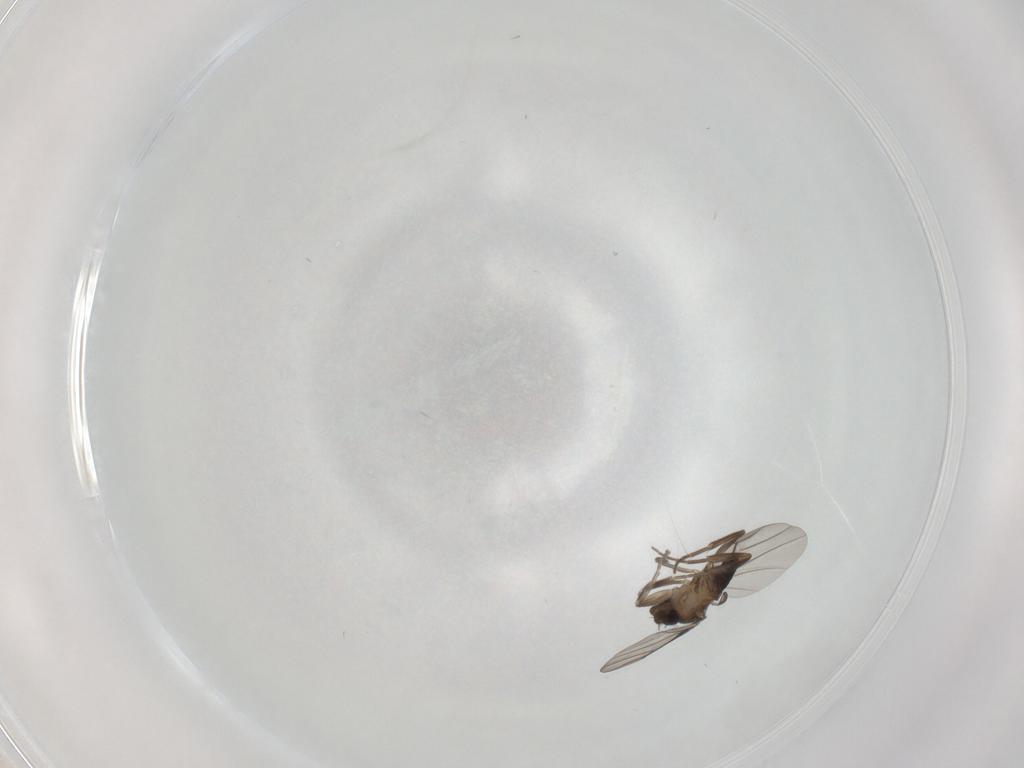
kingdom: Animalia
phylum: Arthropoda
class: Insecta
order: Diptera
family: Phoridae
